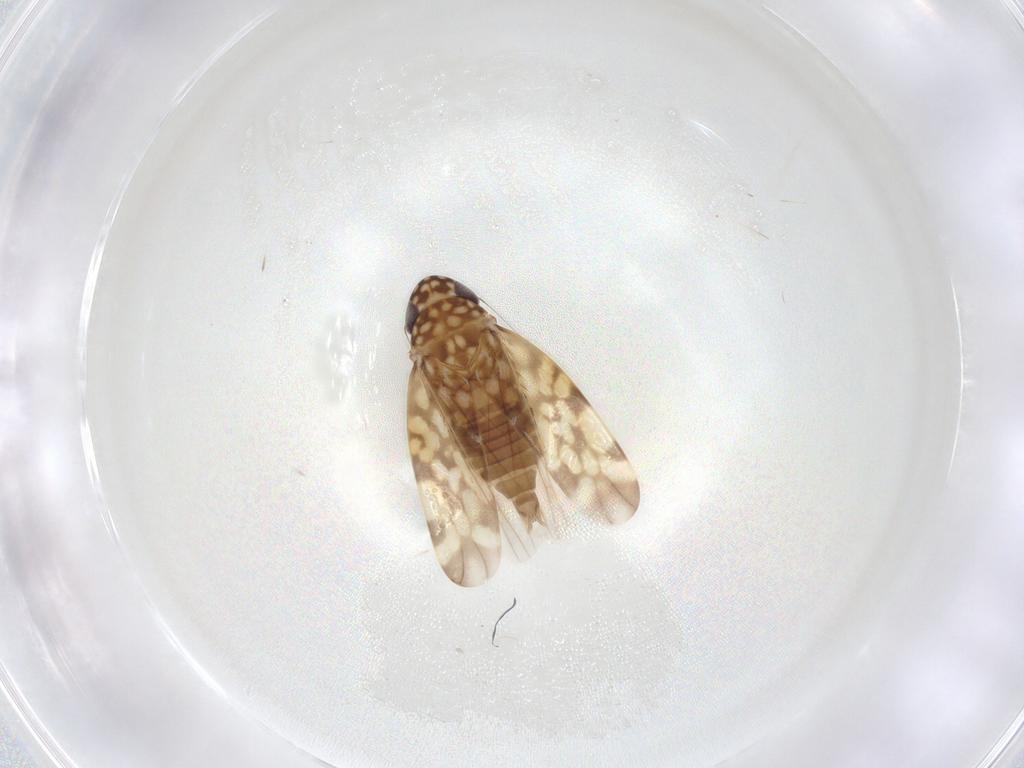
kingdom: Animalia
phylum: Arthropoda
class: Insecta
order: Hemiptera
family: Cicadellidae
